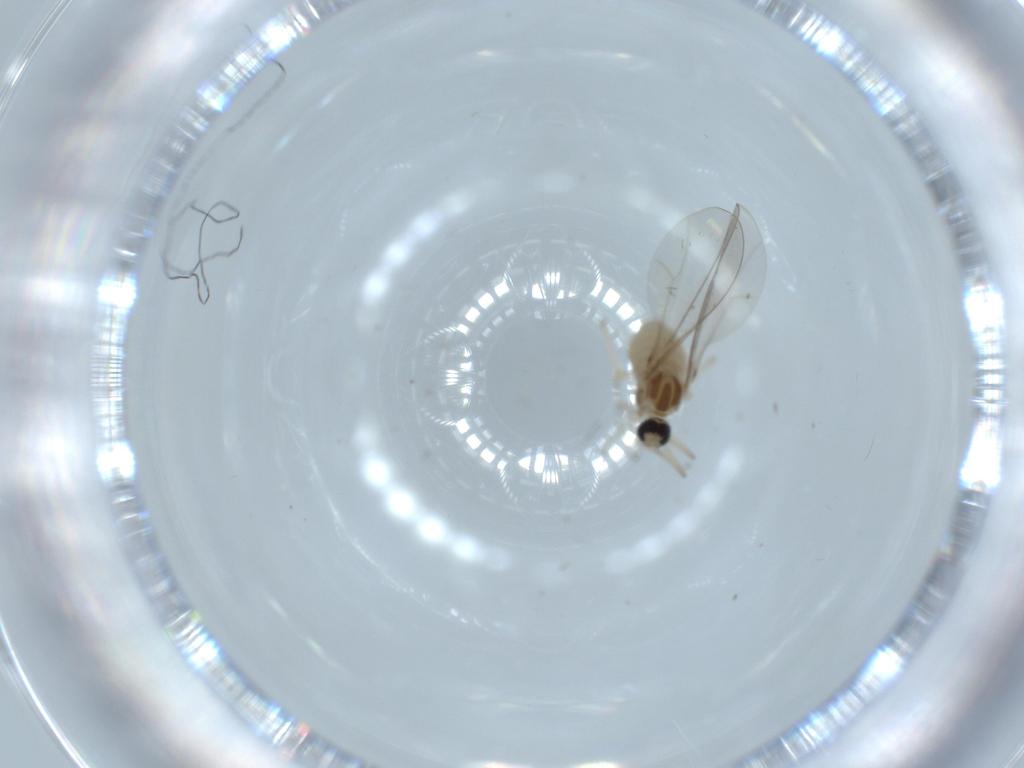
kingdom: Animalia
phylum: Arthropoda
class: Insecta
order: Diptera
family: Cecidomyiidae
